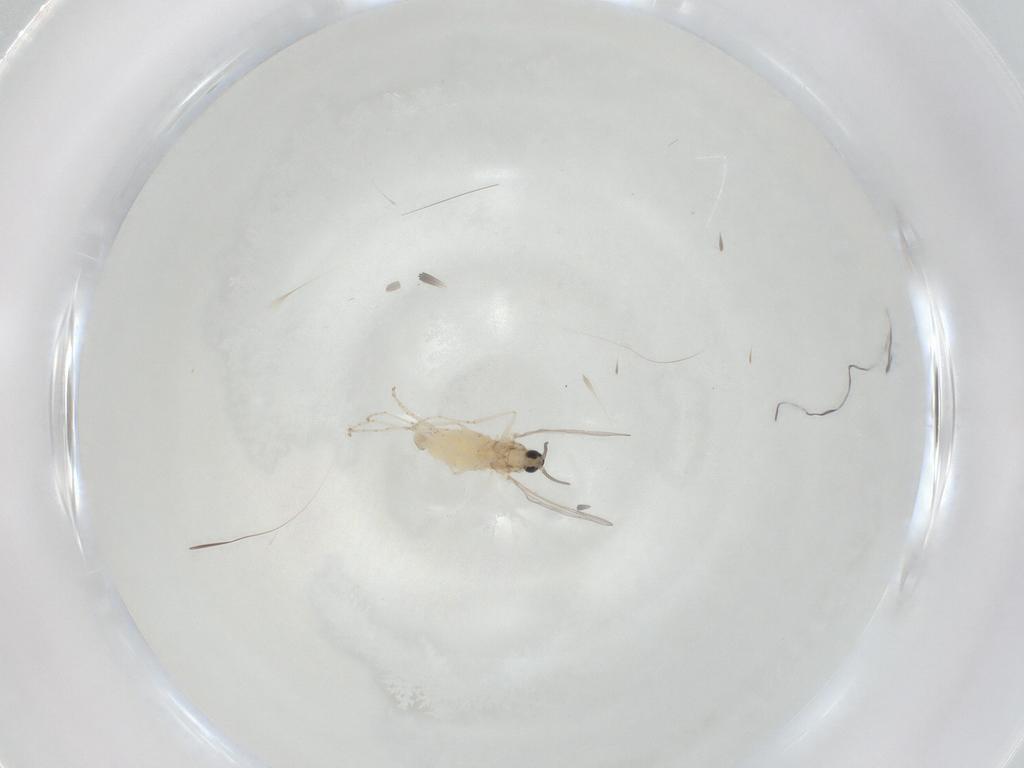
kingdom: Animalia
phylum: Arthropoda
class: Insecta
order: Diptera
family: Cecidomyiidae
